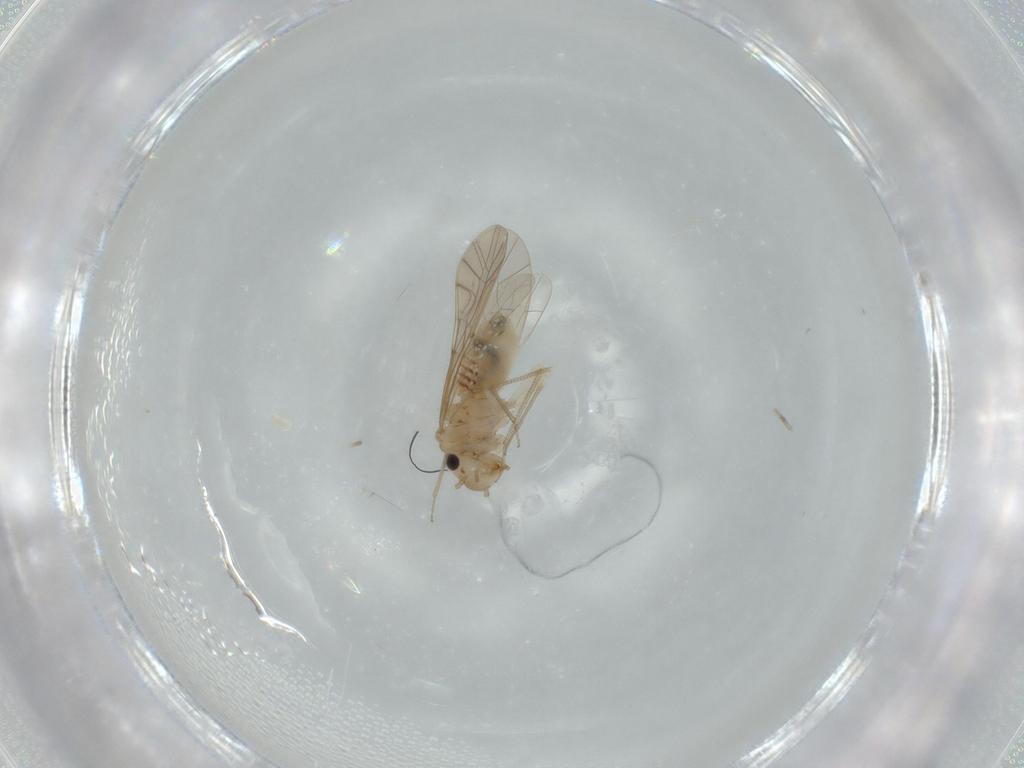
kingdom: Animalia
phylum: Arthropoda
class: Insecta
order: Psocodea
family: Lachesillidae
